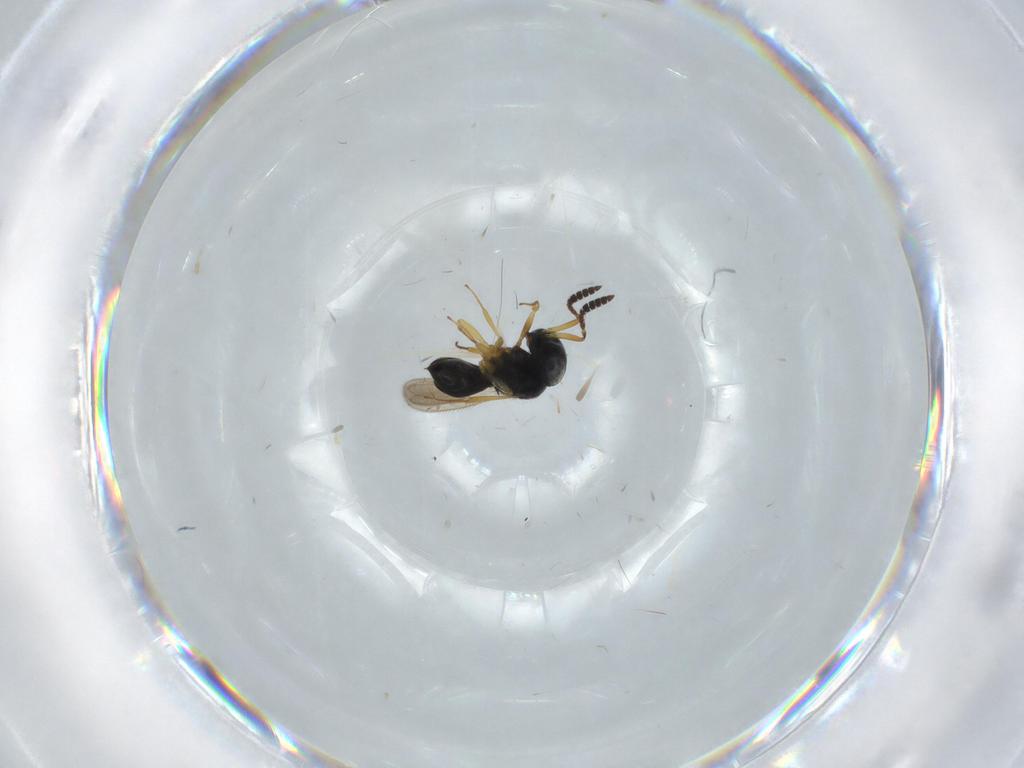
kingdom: Animalia
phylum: Arthropoda
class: Insecta
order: Hymenoptera
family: Scelionidae
